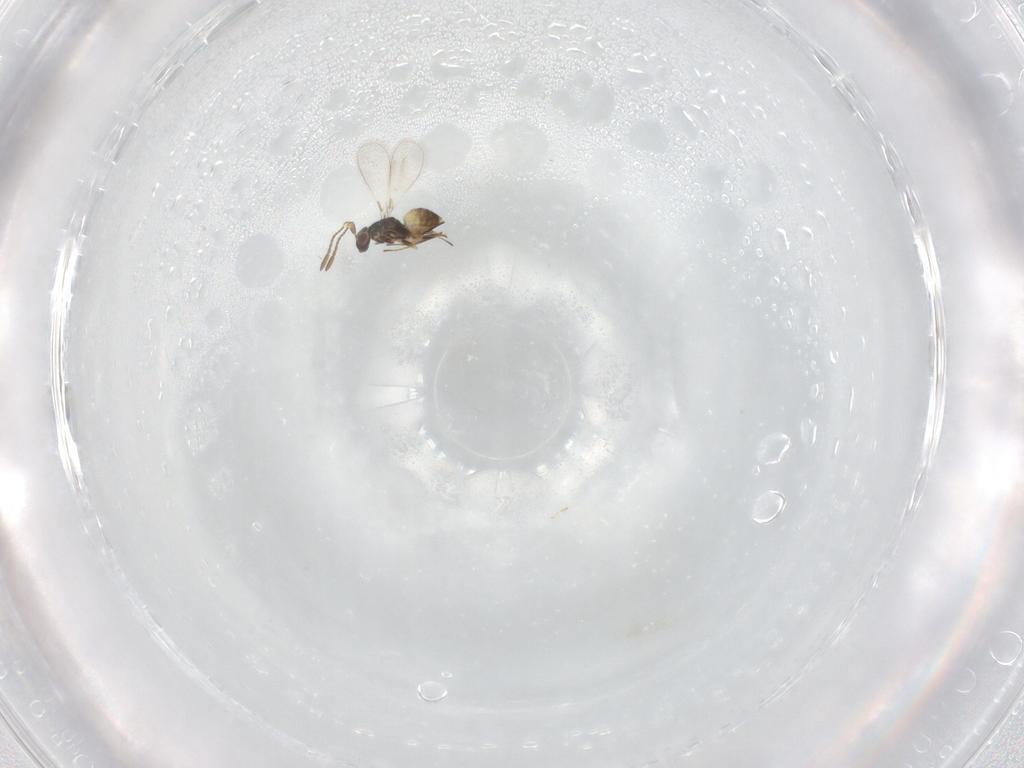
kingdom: Animalia
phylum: Arthropoda
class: Insecta
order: Hymenoptera
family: Mymaridae
